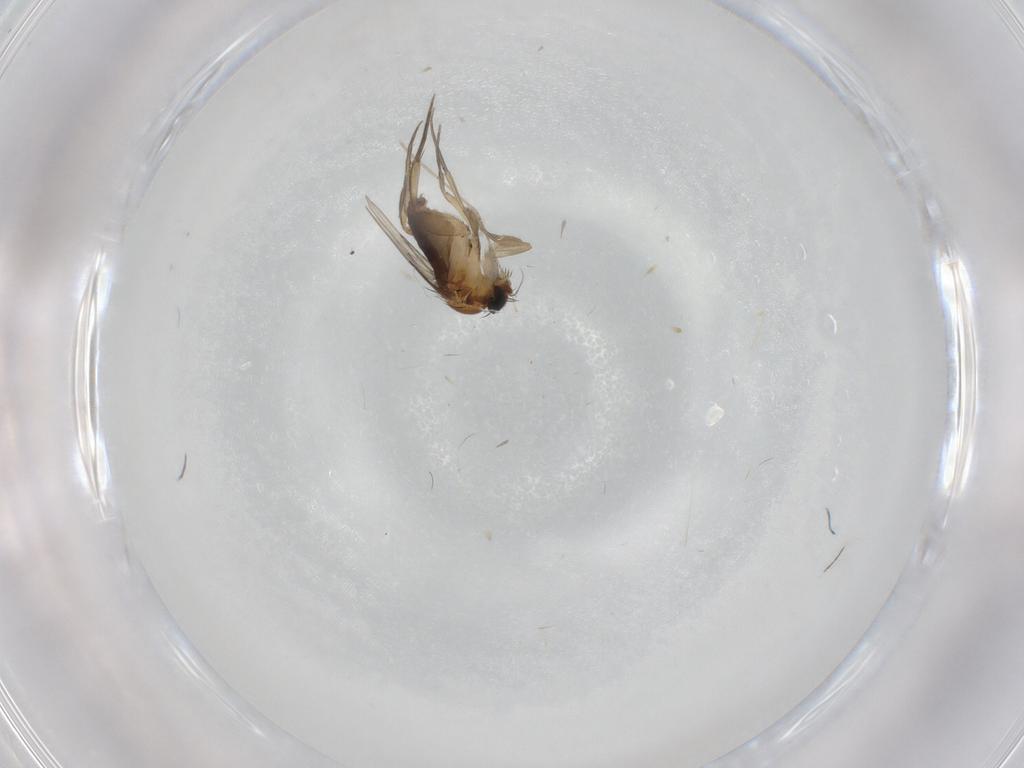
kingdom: Animalia
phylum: Arthropoda
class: Insecta
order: Diptera
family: Phoridae
